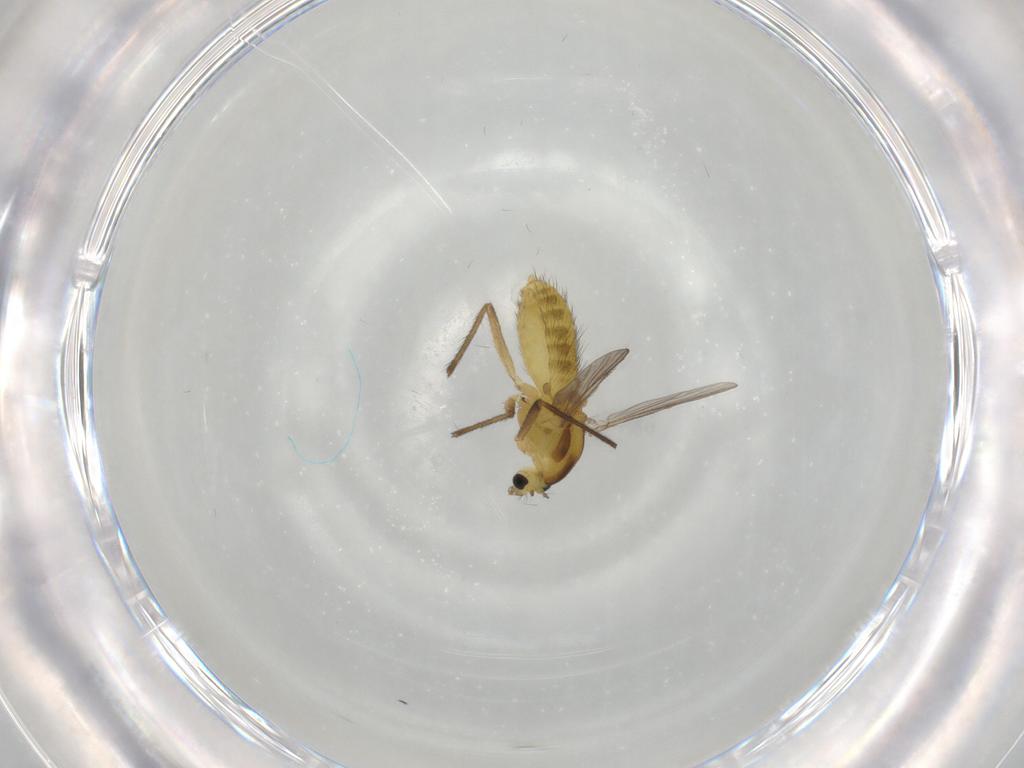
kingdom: Animalia
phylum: Arthropoda
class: Insecta
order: Diptera
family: Chironomidae
